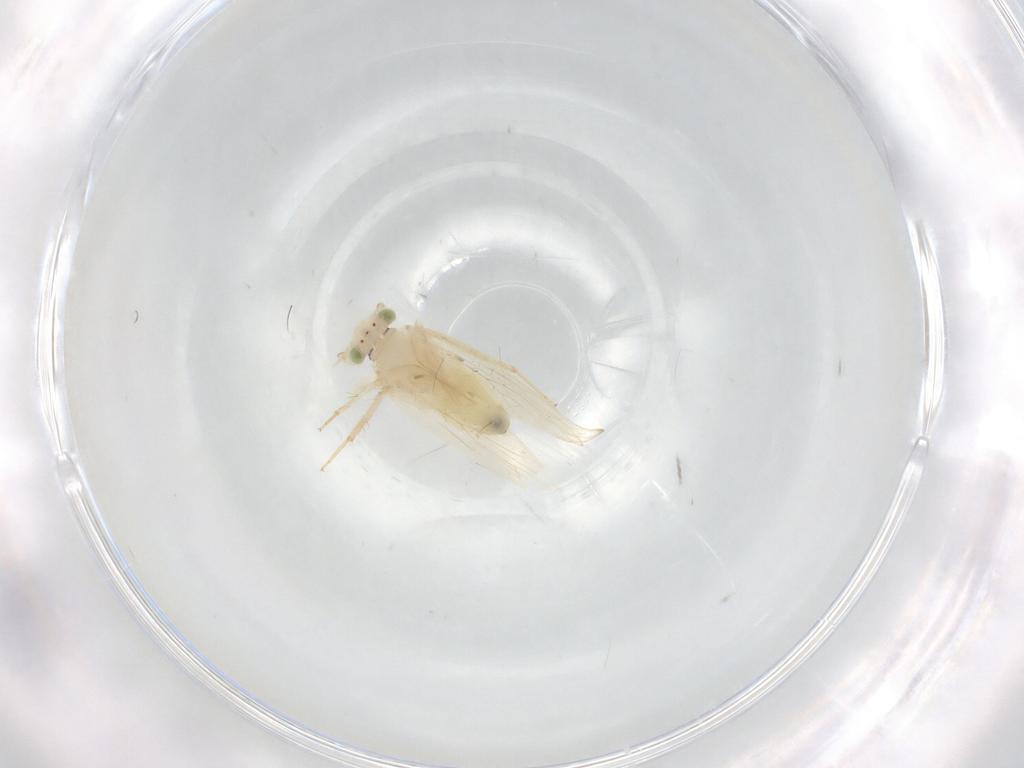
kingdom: Animalia
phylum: Arthropoda
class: Insecta
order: Psocodea
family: Lepidopsocidae
